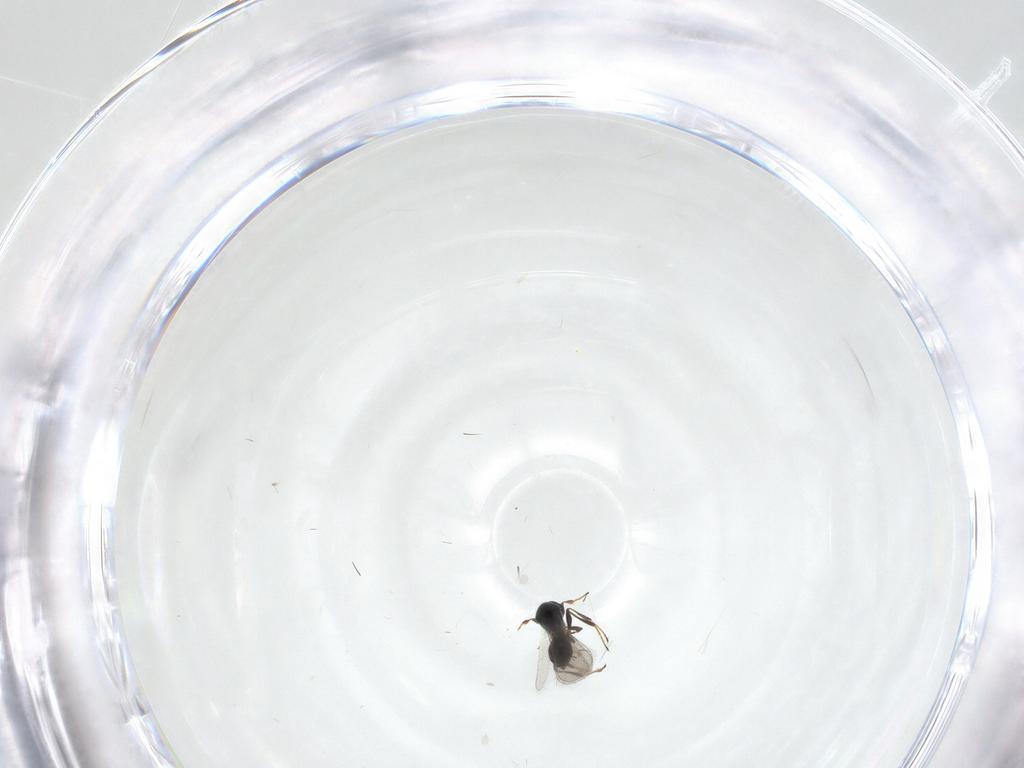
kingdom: Animalia
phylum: Arthropoda
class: Insecta
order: Hymenoptera
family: Platygastridae
